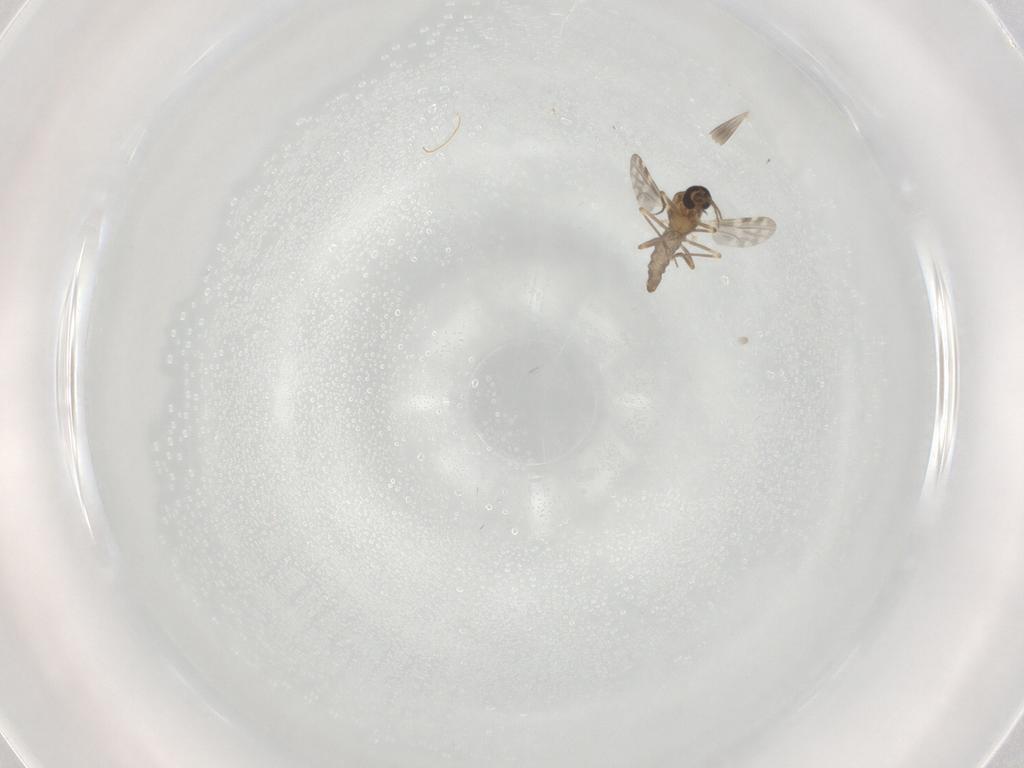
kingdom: Animalia
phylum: Arthropoda
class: Insecta
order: Diptera
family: Ceratopogonidae
